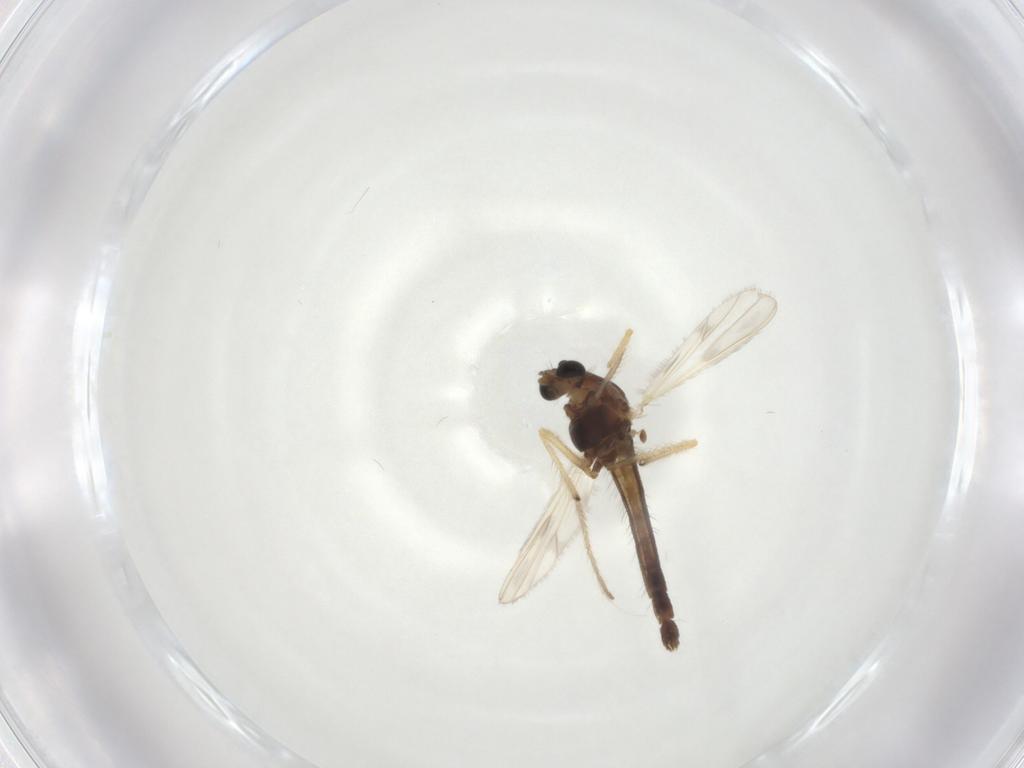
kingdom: Animalia
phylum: Arthropoda
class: Insecta
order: Diptera
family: Chironomidae
